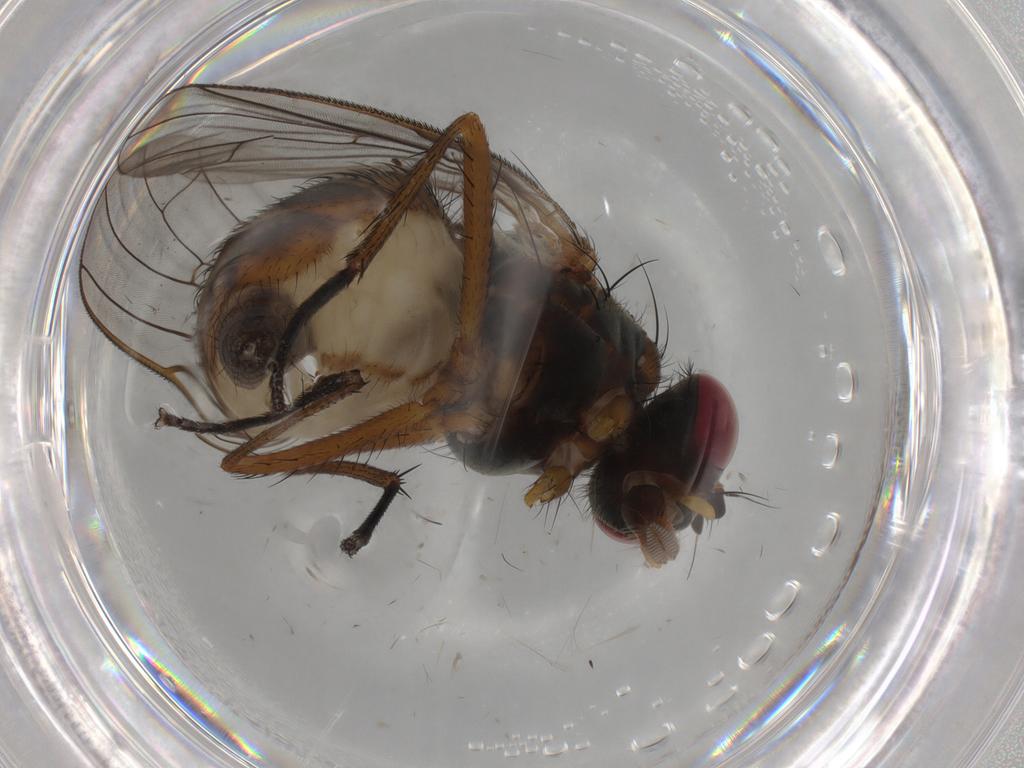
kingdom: Animalia
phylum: Arthropoda
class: Insecta
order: Diptera
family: Anthomyiidae
